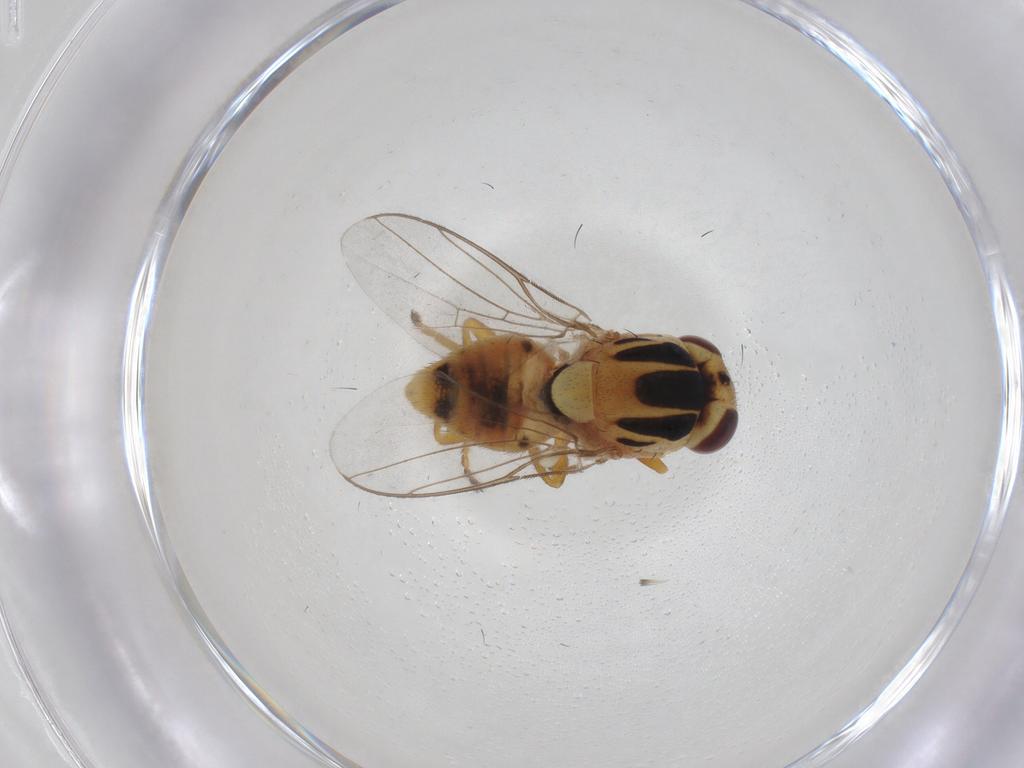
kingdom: Animalia
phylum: Arthropoda
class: Insecta
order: Diptera
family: Chloropidae
